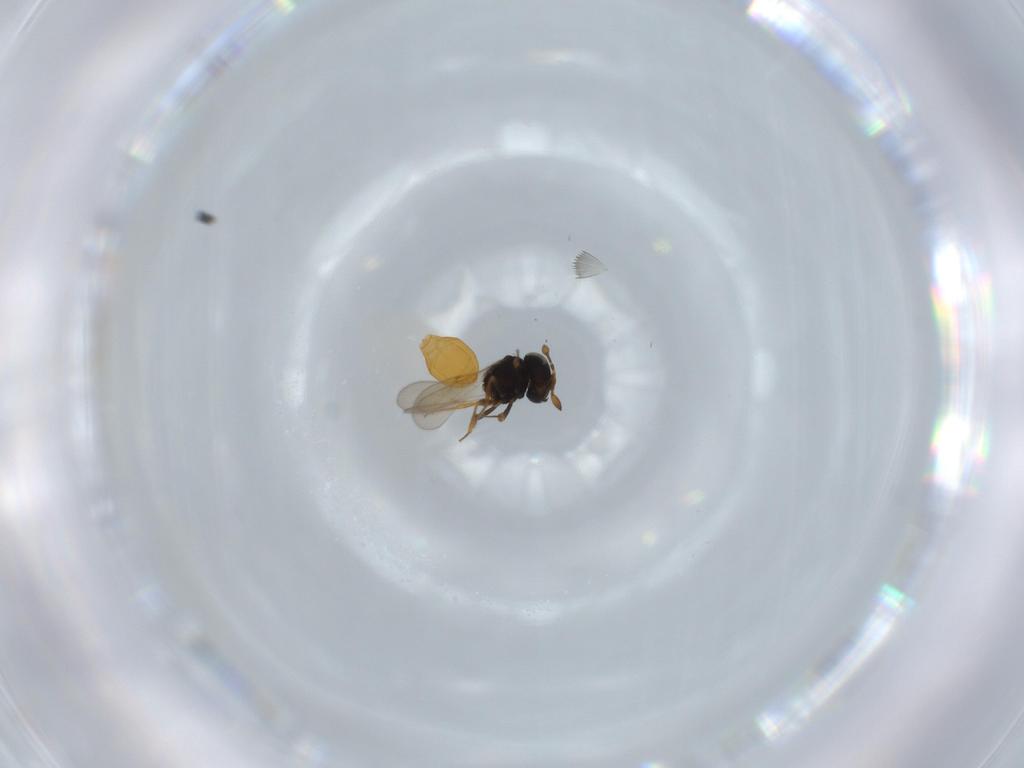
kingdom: Animalia
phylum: Arthropoda
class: Insecta
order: Hymenoptera
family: Scelionidae
